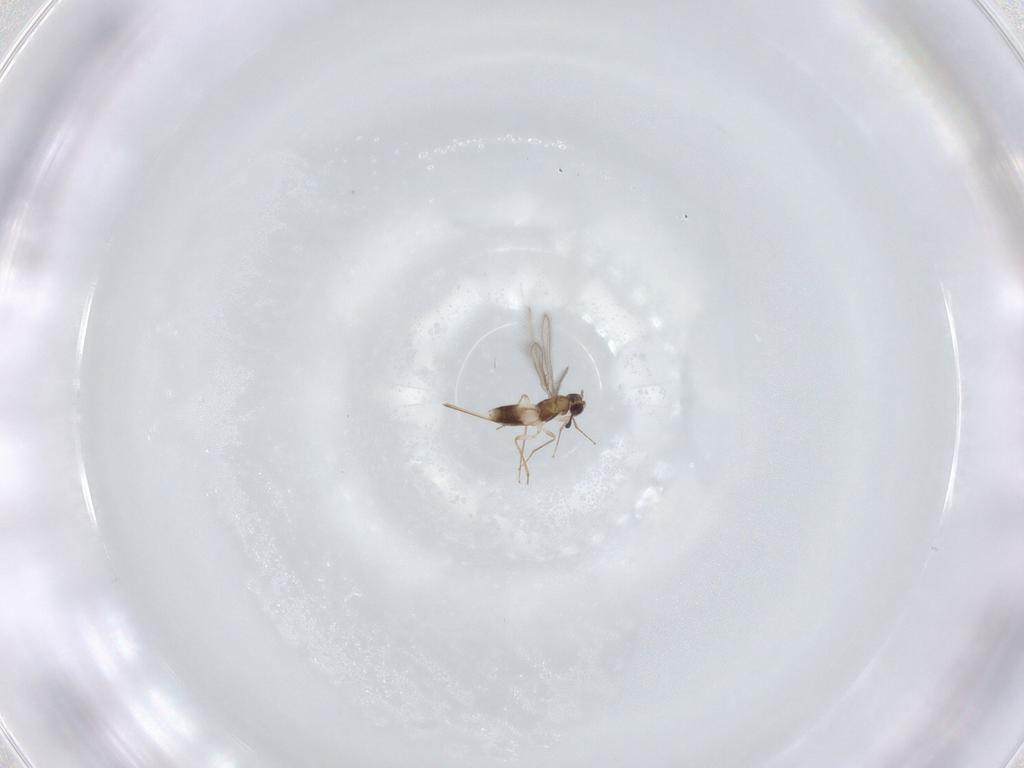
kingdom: Animalia
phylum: Arthropoda
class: Insecta
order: Hymenoptera
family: Mymaridae
